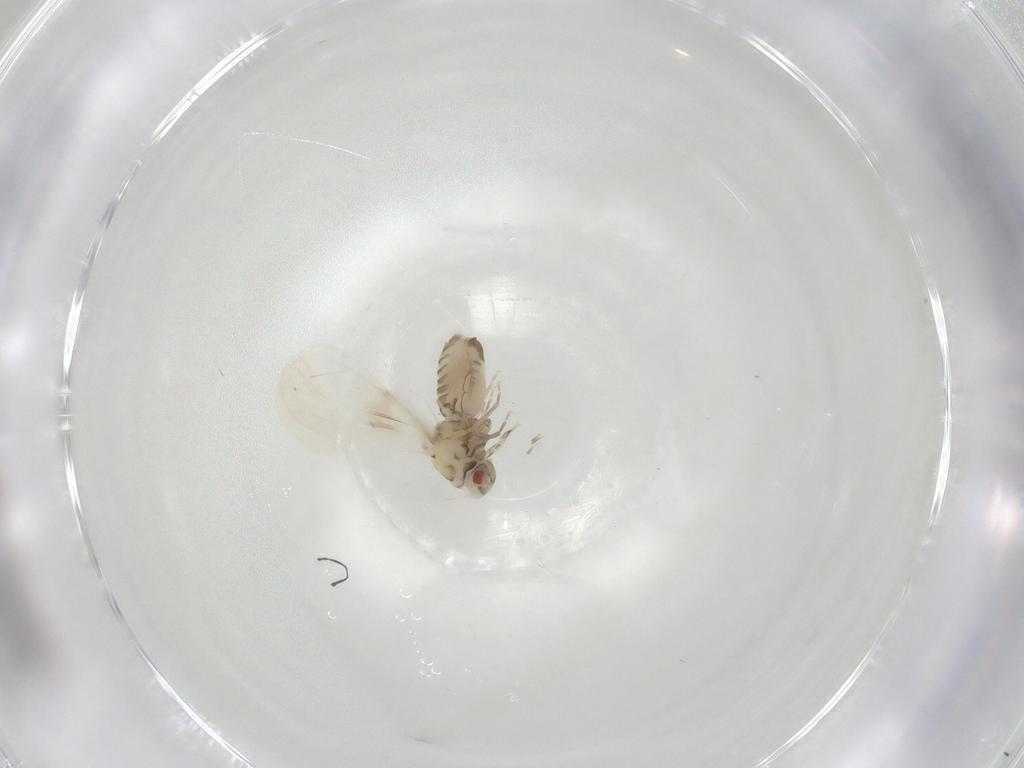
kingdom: Animalia
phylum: Arthropoda
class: Insecta
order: Hemiptera
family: Aleyrodidae
